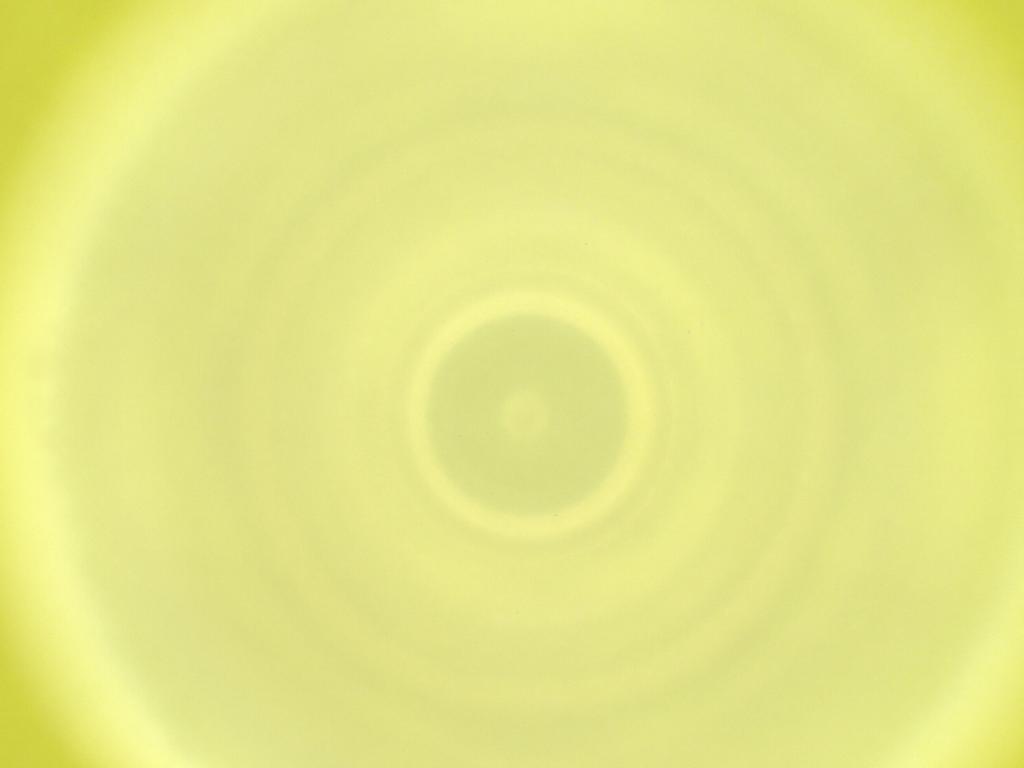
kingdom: Animalia
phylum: Arthropoda
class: Insecta
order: Diptera
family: Cecidomyiidae
